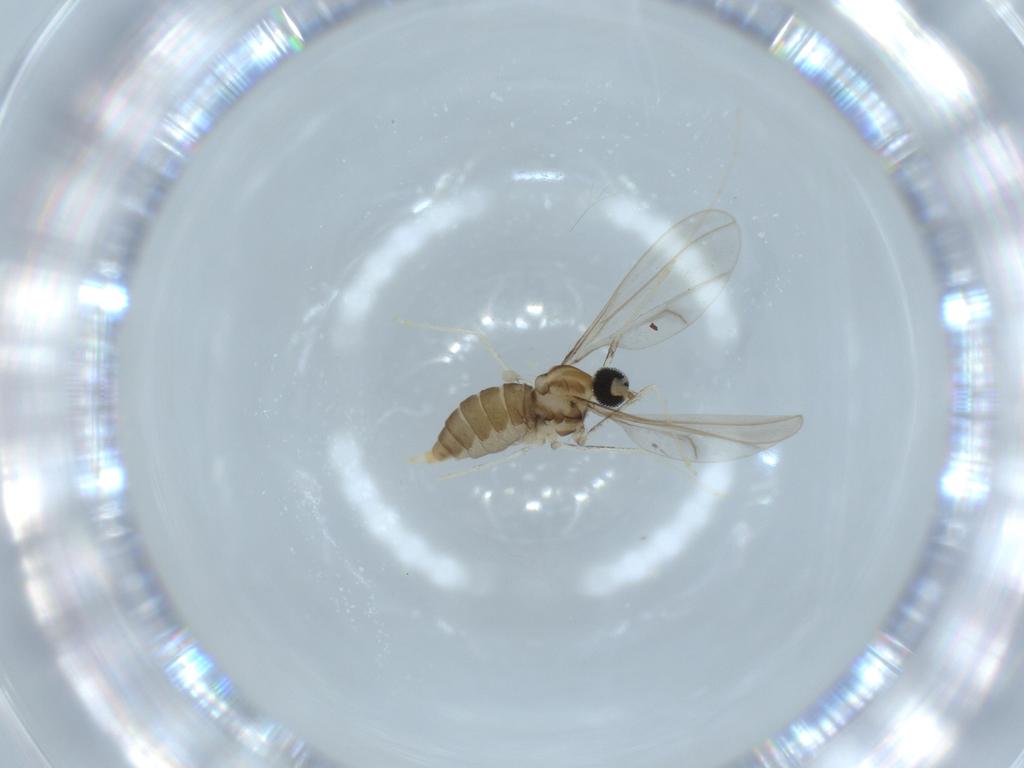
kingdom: Animalia
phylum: Arthropoda
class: Insecta
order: Diptera
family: Cecidomyiidae
